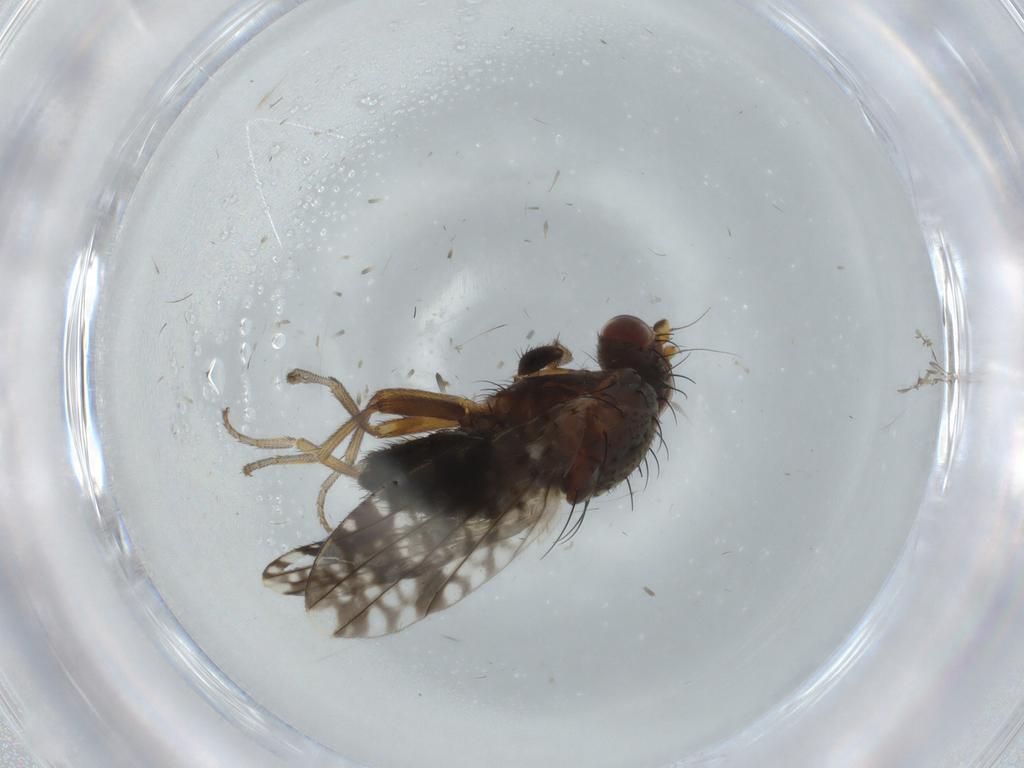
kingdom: Animalia
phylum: Arthropoda
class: Insecta
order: Diptera
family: Tephritidae
